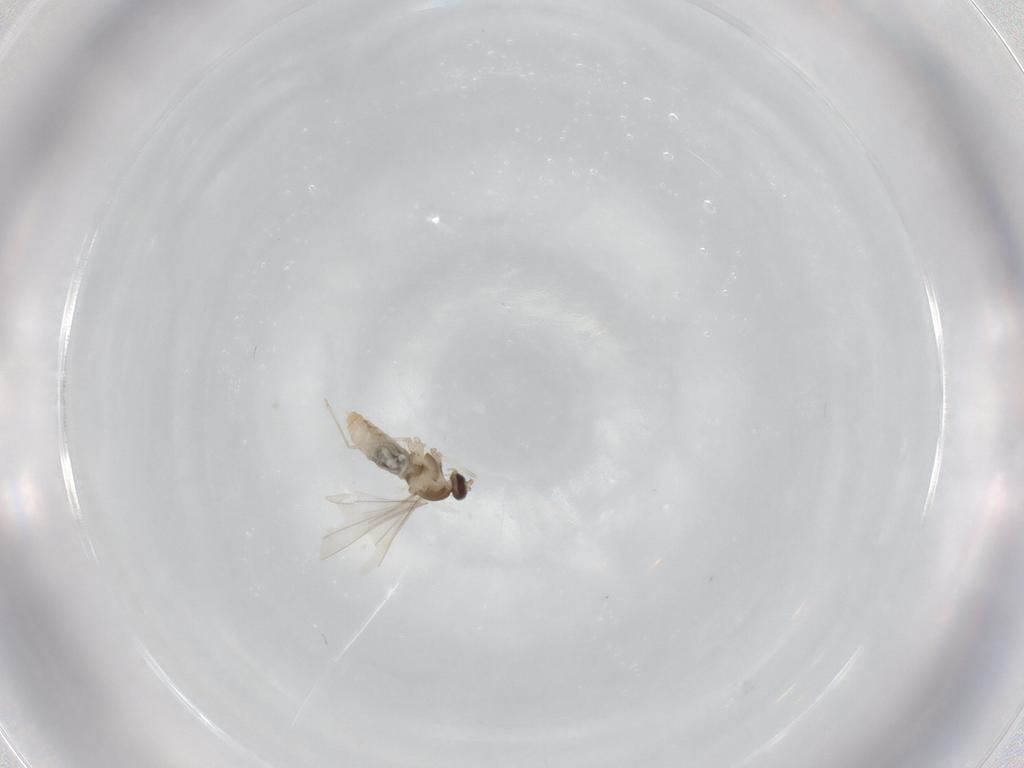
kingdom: Animalia
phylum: Arthropoda
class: Insecta
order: Diptera
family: Cecidomyiidae
